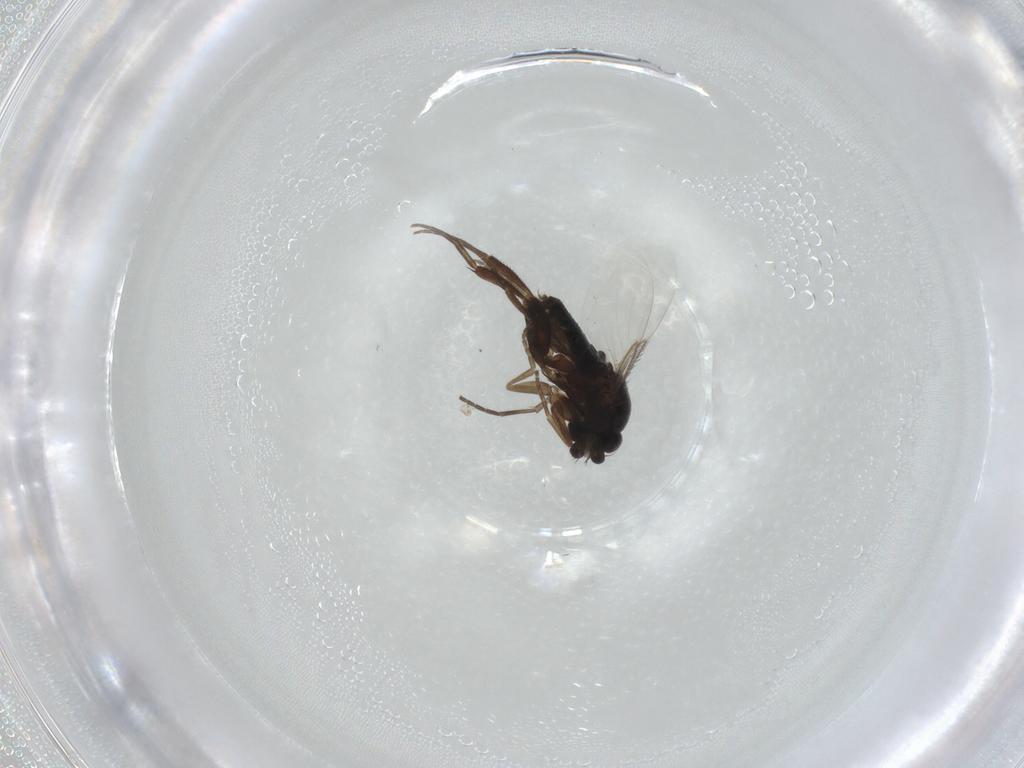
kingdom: Animalia
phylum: Arthropoda
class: Insecta
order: Diptera
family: Phoridae
